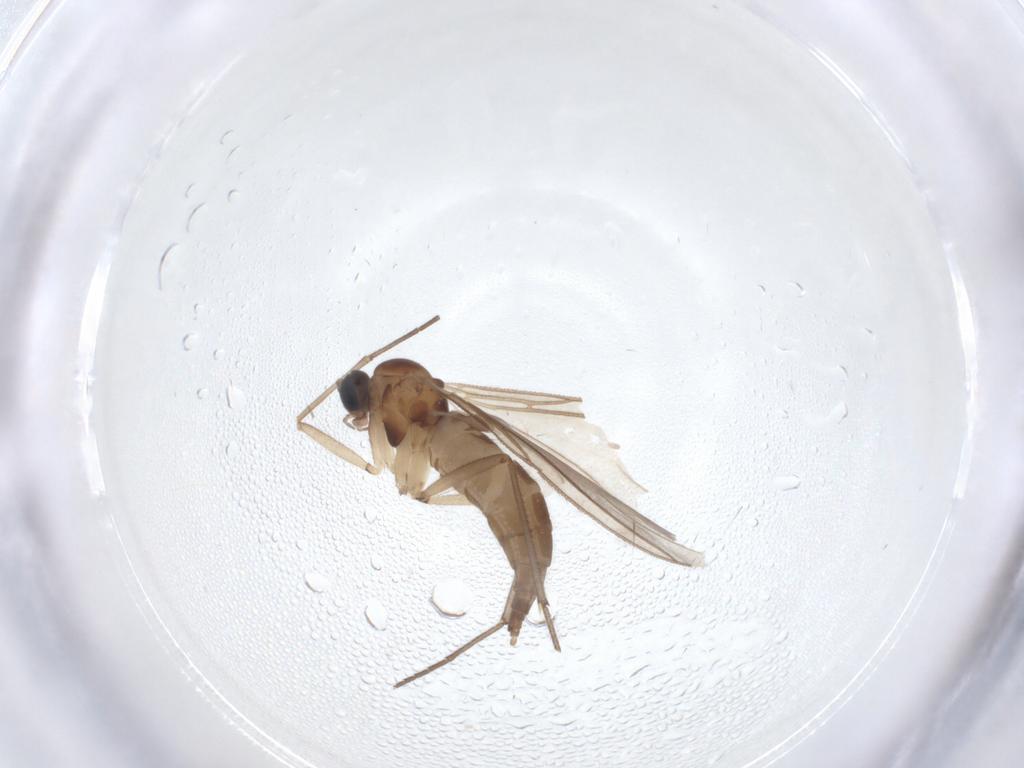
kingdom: Animalia
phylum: Arthropoda
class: Insecta
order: Diptera
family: Sciaridae
